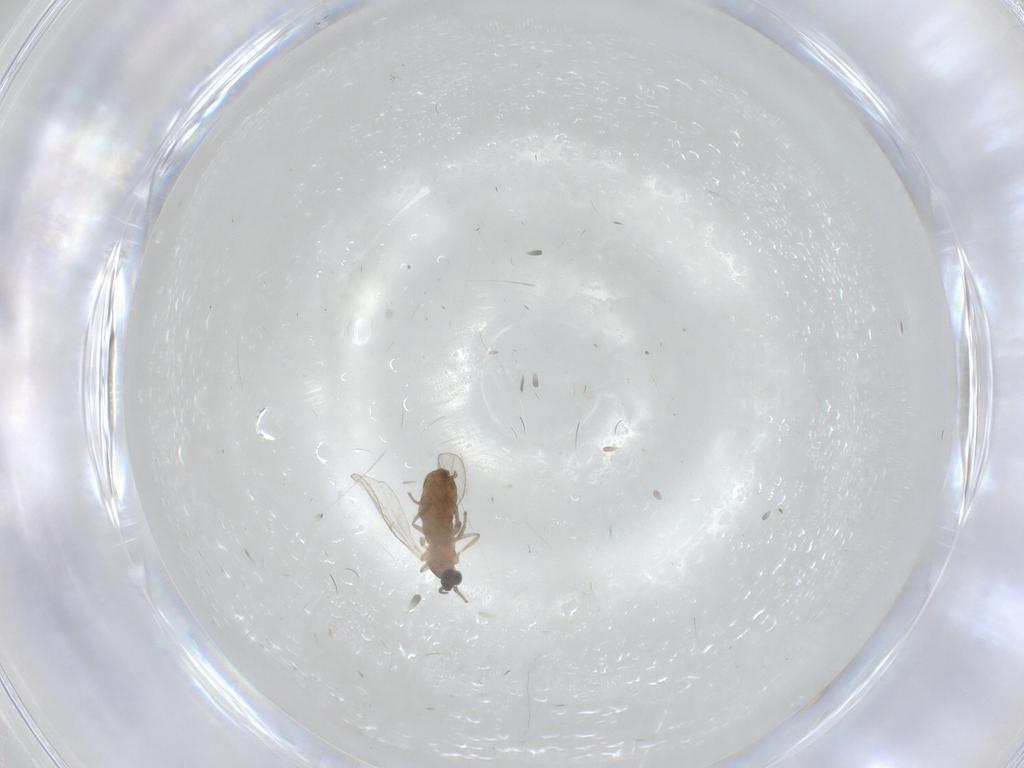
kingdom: Animalia
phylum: Arthropoda
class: Insecta
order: Diptera
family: Cecidomyiidae
